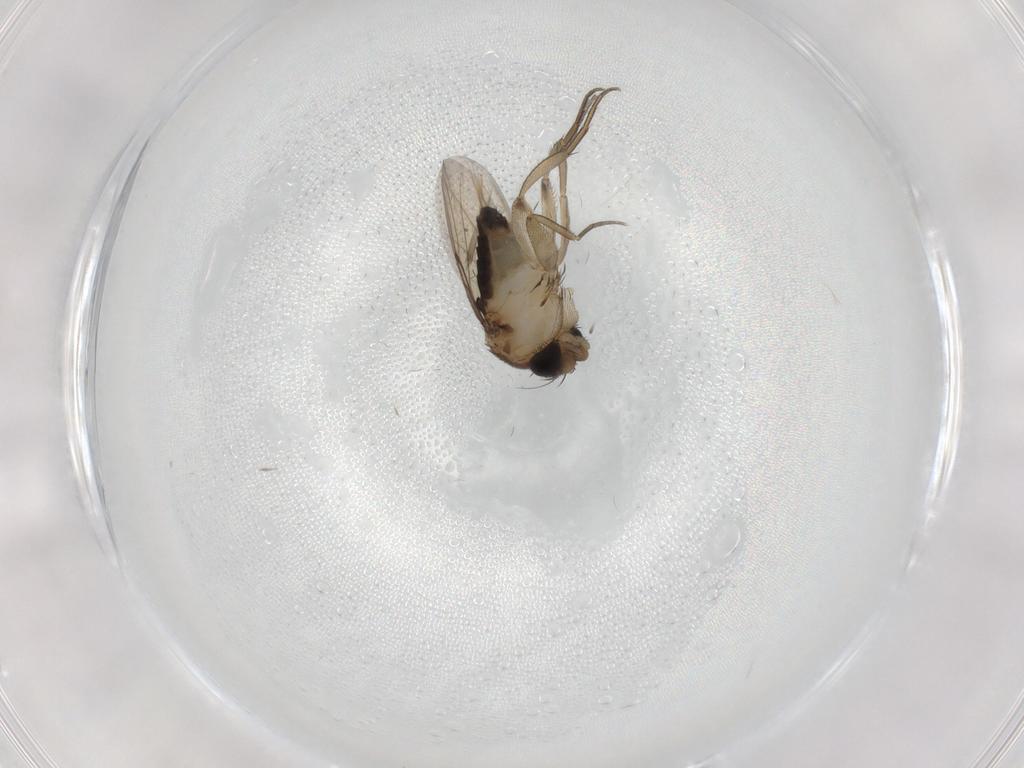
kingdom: Animalia
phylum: Arthropoda
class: Insecta
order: Diptera
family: Phoridae
